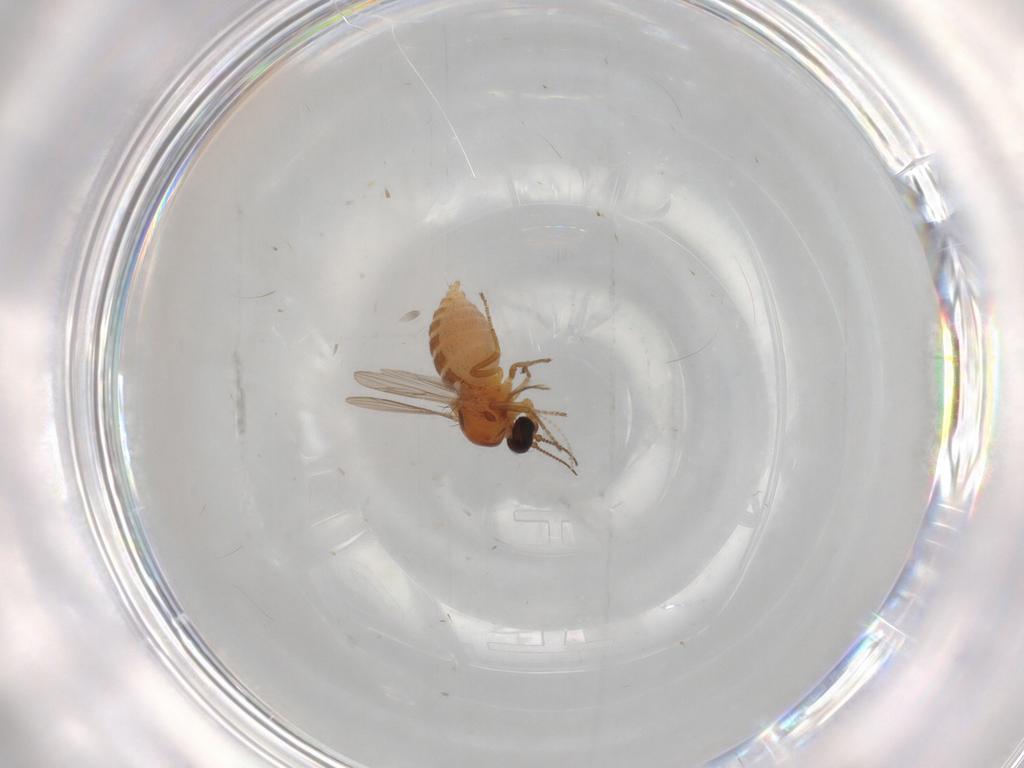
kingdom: Animalia
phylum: Arthropoda
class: Insecta
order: Diptera
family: Ceratopogonidae
